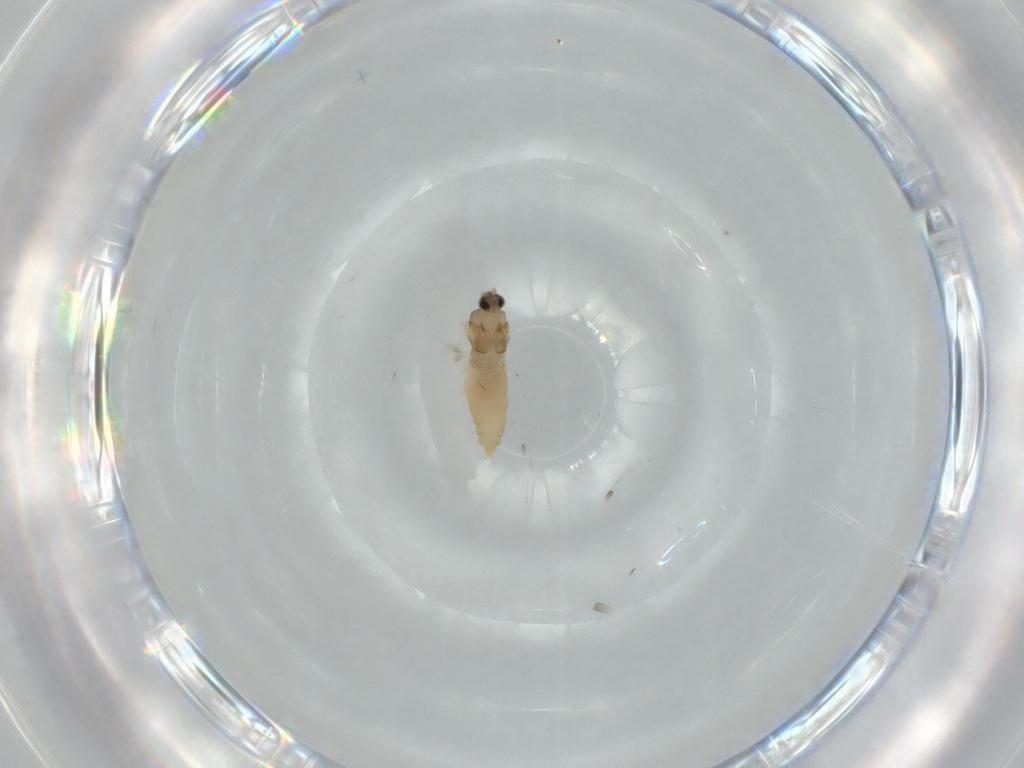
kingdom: Animalia
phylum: Arthropoda
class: Insecta
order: Diptera
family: Cecidomyiidae
